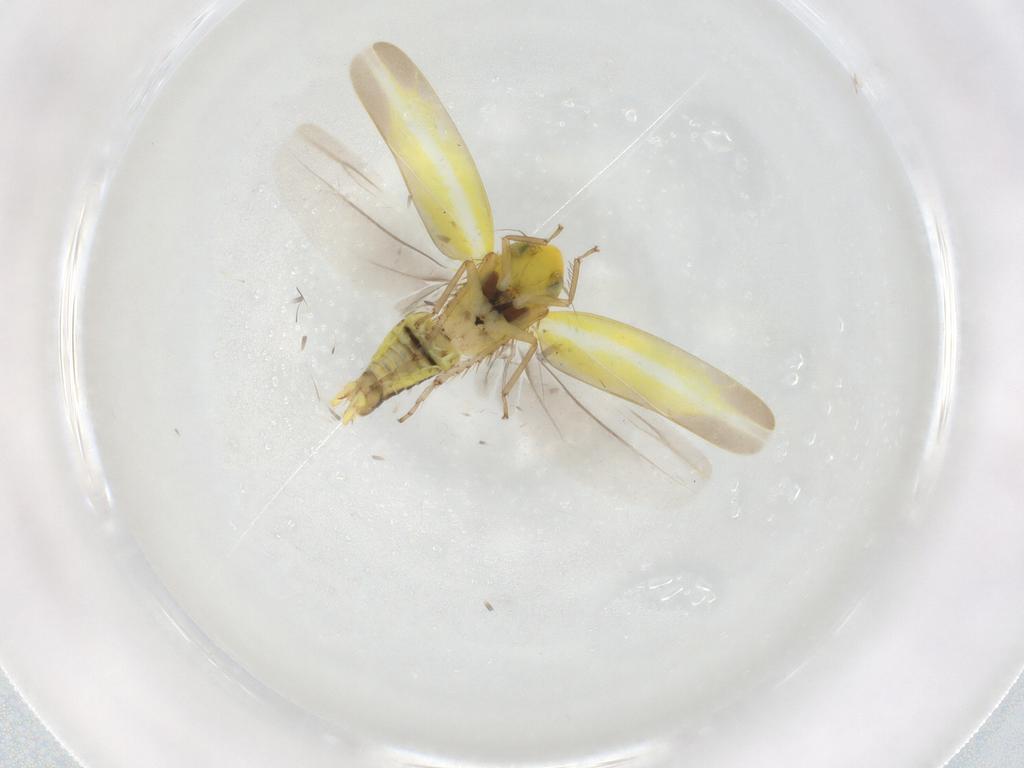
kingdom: Animalia
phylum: Arthropoda
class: Insecta
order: Hemiptera
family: Cicadellidae
